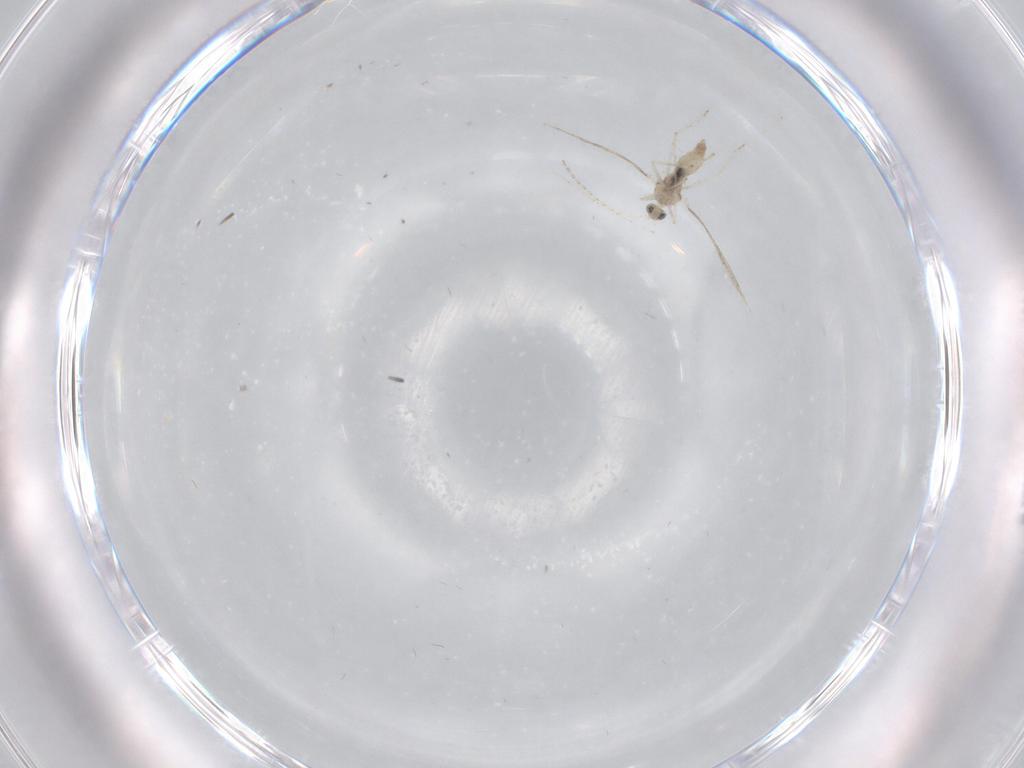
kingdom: Animalia
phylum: Arthropoda
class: Insecta
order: Diptera
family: Cecidomyiidae
